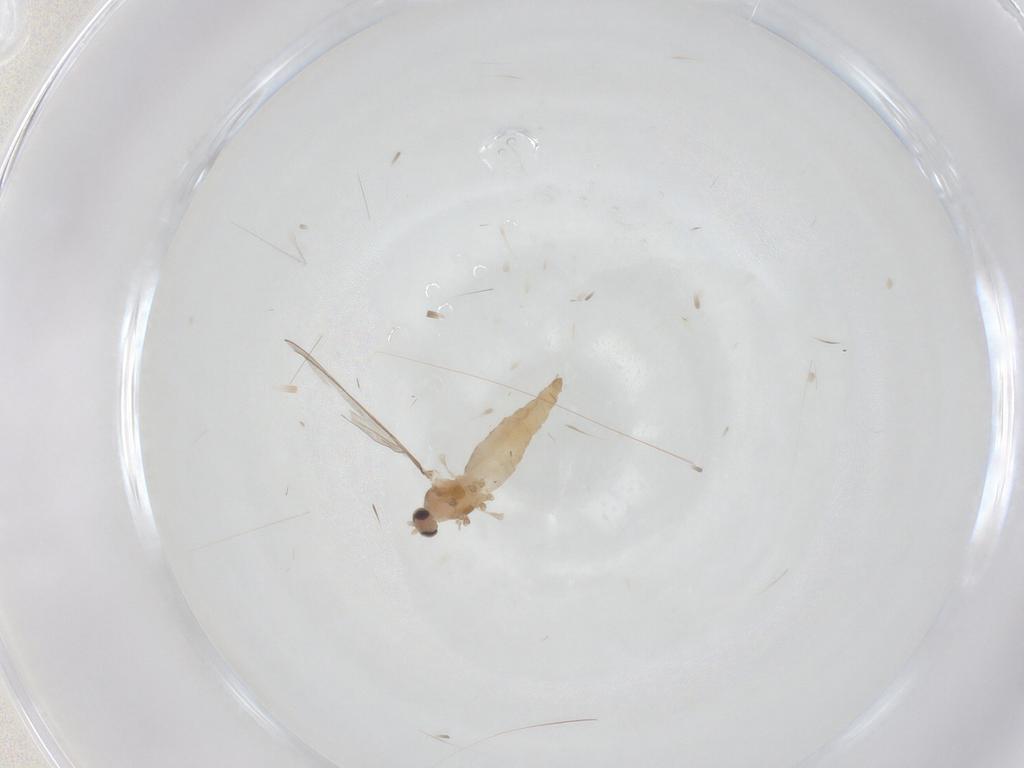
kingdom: Animalia
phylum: Arthropoda
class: Insecta
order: Diptera
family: Cecidomyiidae
